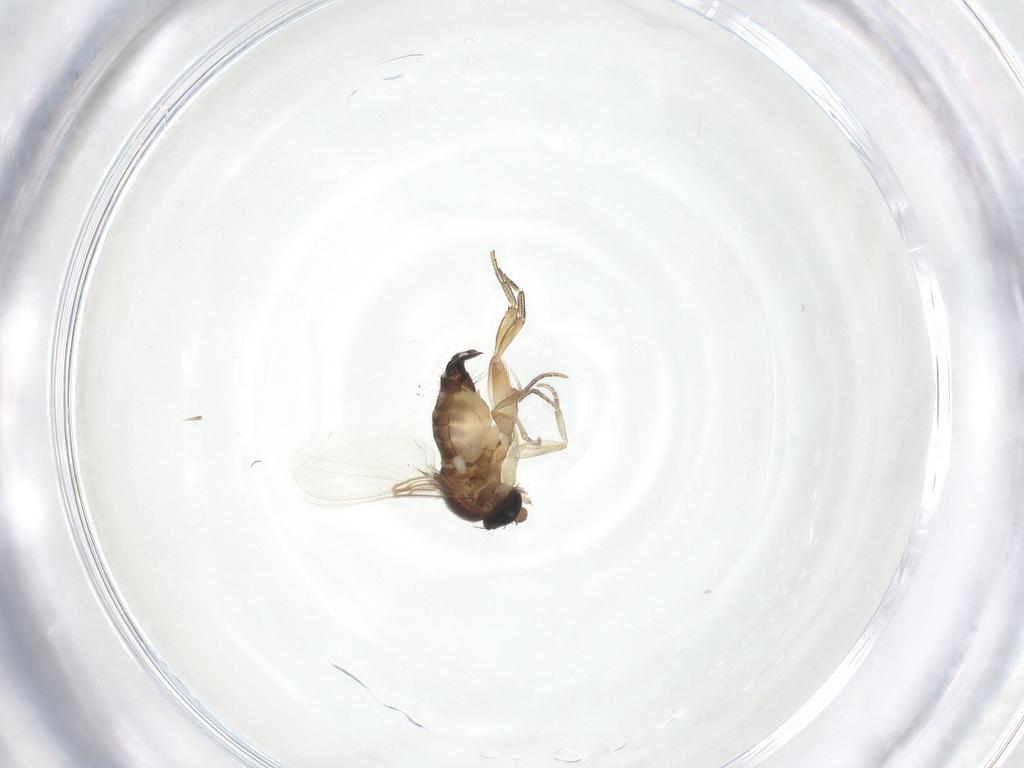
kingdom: Animalia
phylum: Arthropoda
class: Insecta
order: Diptera
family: Phoridae
